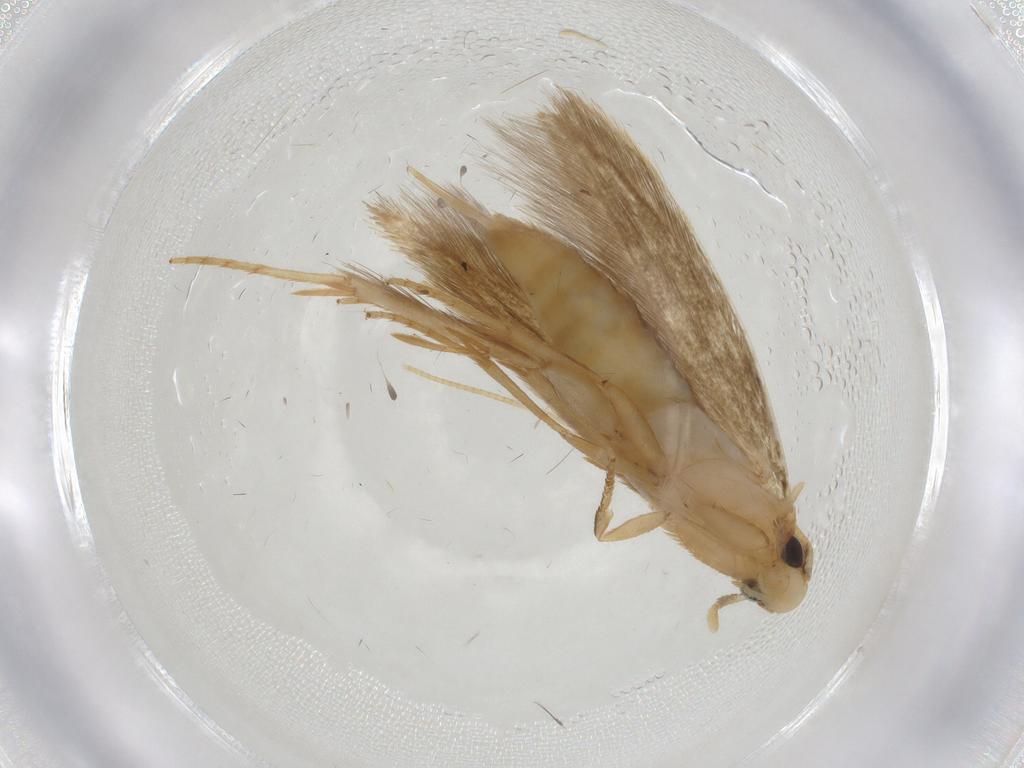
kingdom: Animalia
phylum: Arthropoda
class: Insecta
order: Lepidoptera
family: Cosmopterigidae
